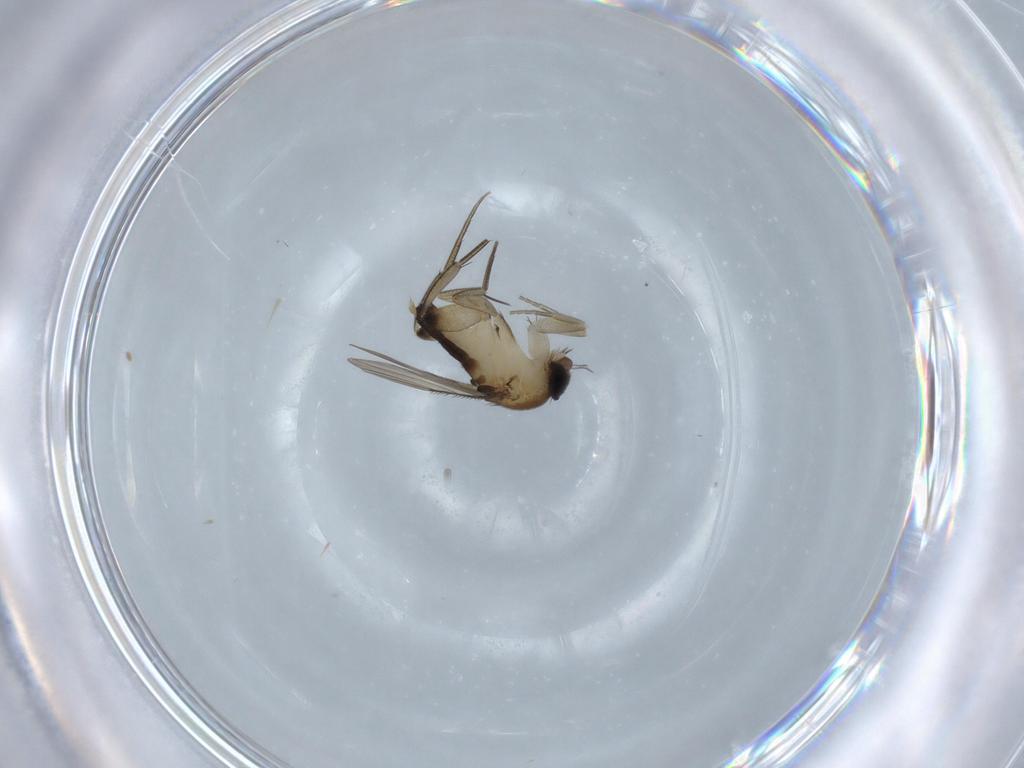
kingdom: Animalia
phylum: Arthropoda
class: Insecta
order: Diptera
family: Phoridae
